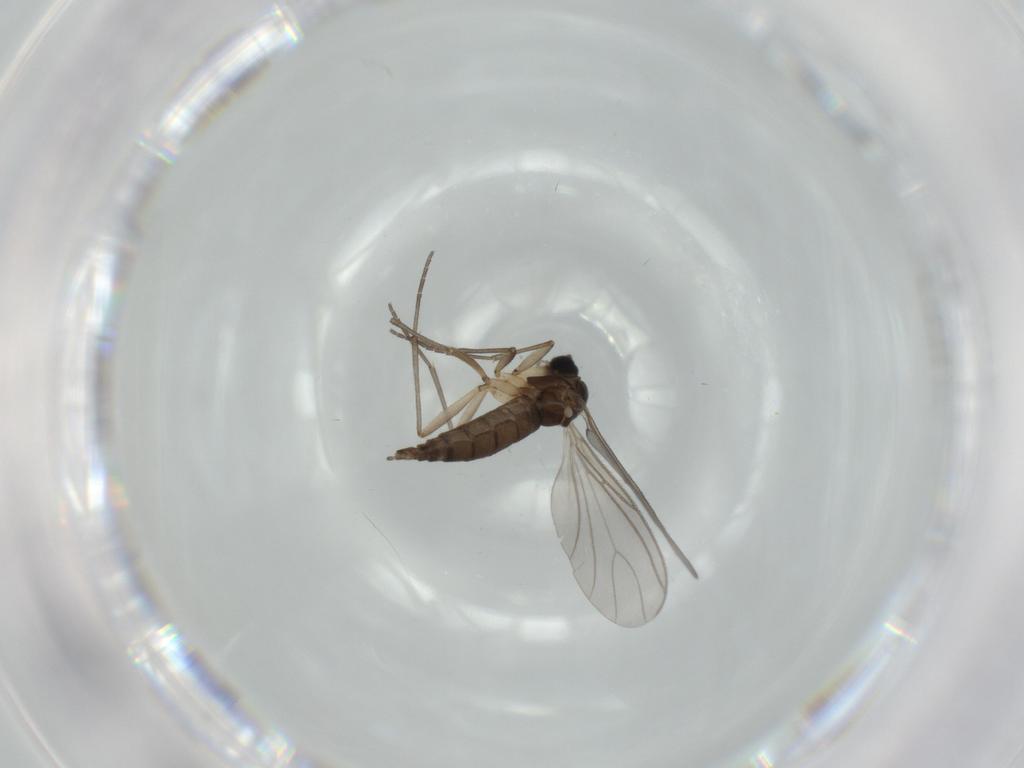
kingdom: Animalia
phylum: Arthropoda
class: Insecta
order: Diptera
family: Sciaridae
